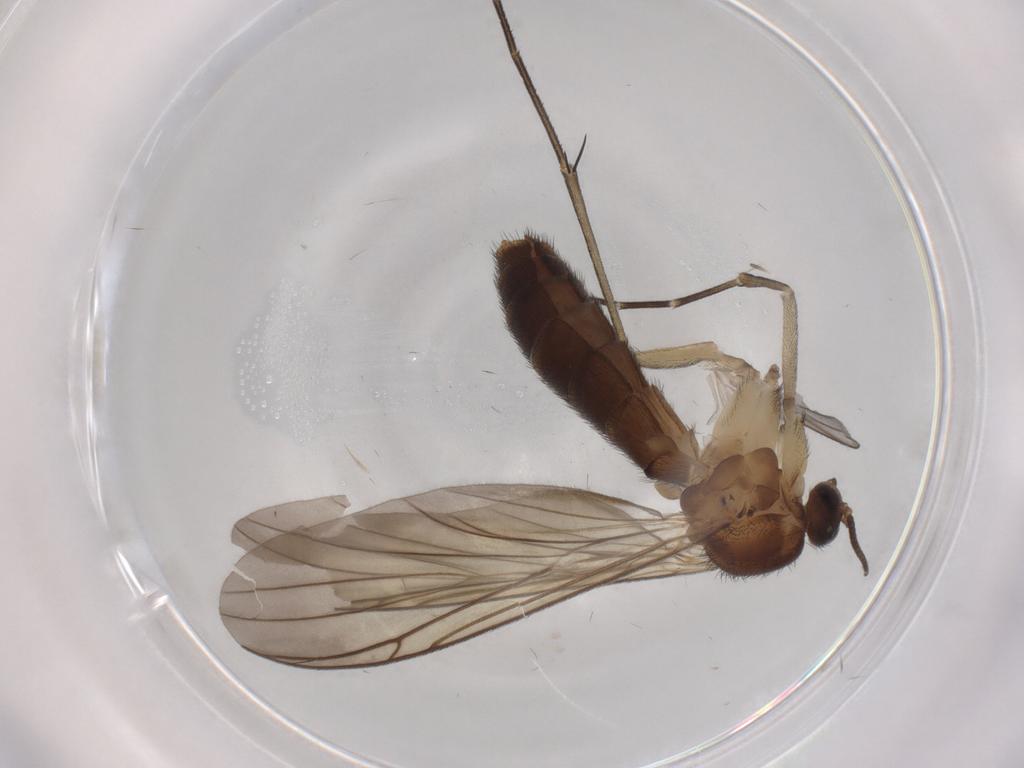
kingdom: Animalia
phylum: Arthropoda
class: Insecta
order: Diptera
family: Keroplatidae
